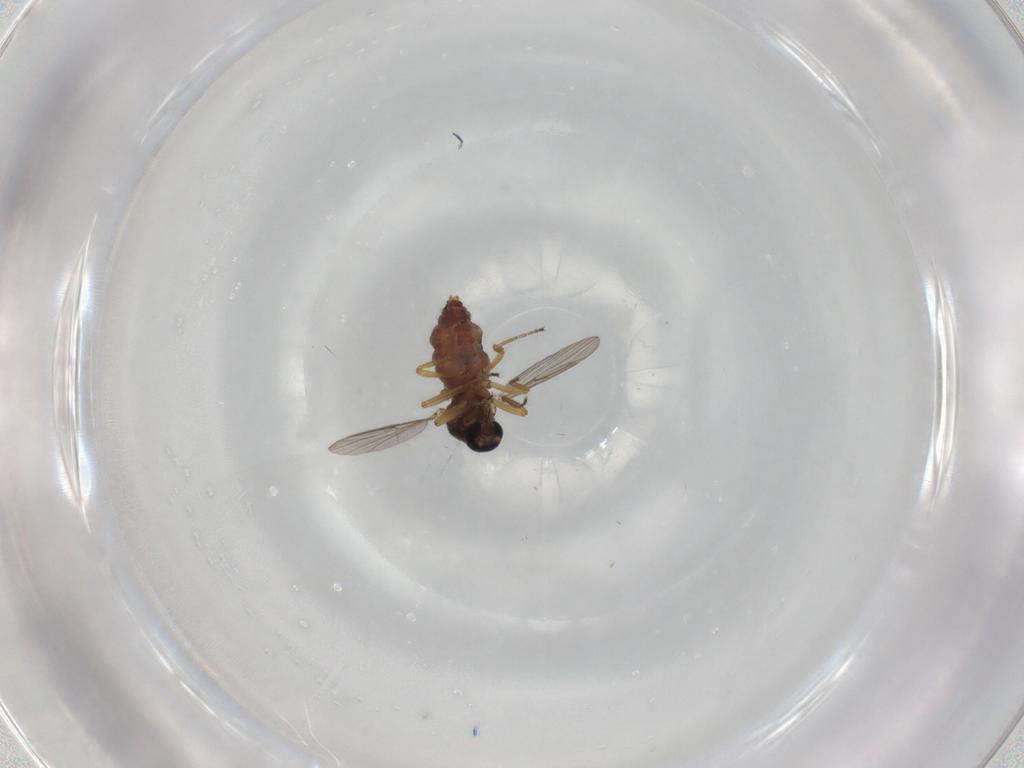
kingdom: Animalia
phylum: Arthropoda
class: Insecta
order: Diptera
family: Ceratopogonidae
